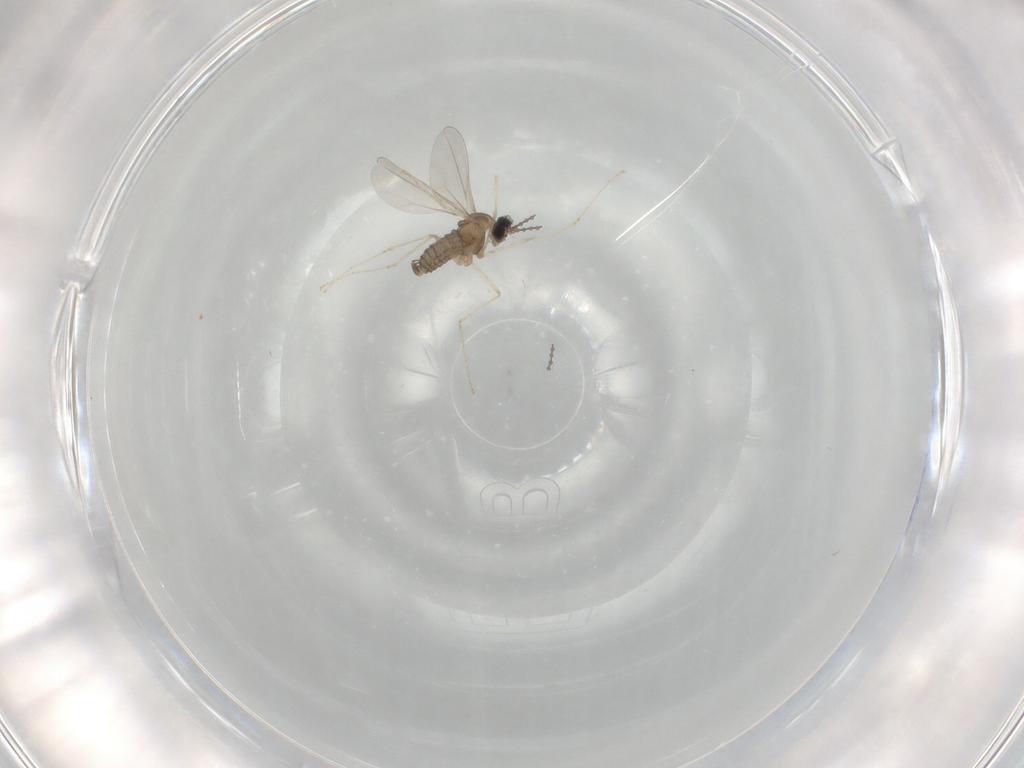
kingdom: Animalia
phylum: Arthropoda
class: Insecta
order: Diptera
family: Cecidomyiidae
